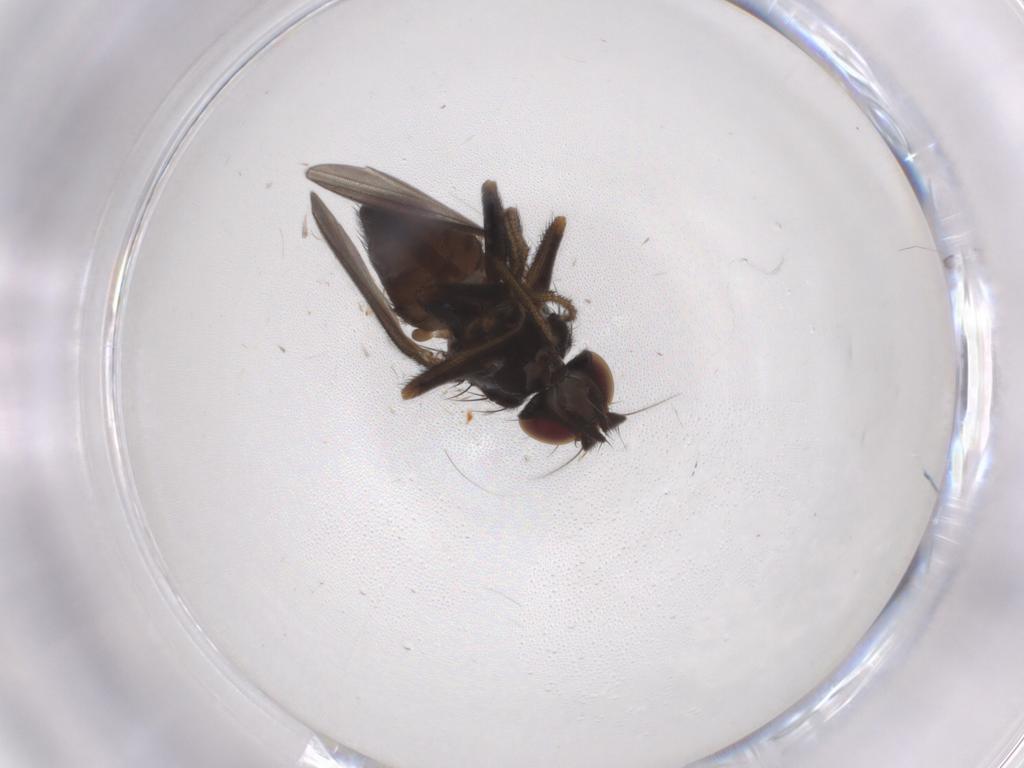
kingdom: Animalia
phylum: Arthropoda
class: Insecta
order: Diptera
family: Milichiidae
